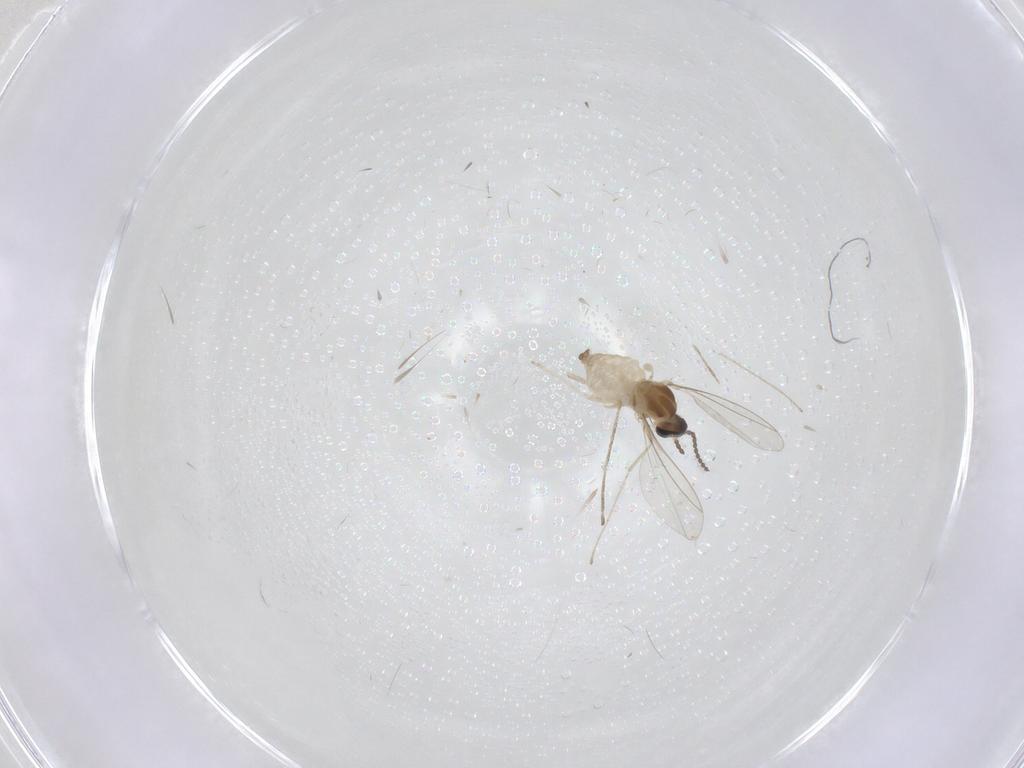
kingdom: Animalia
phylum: Arthropoda
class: Insecta
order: Diptera
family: Cecidomyiidae
